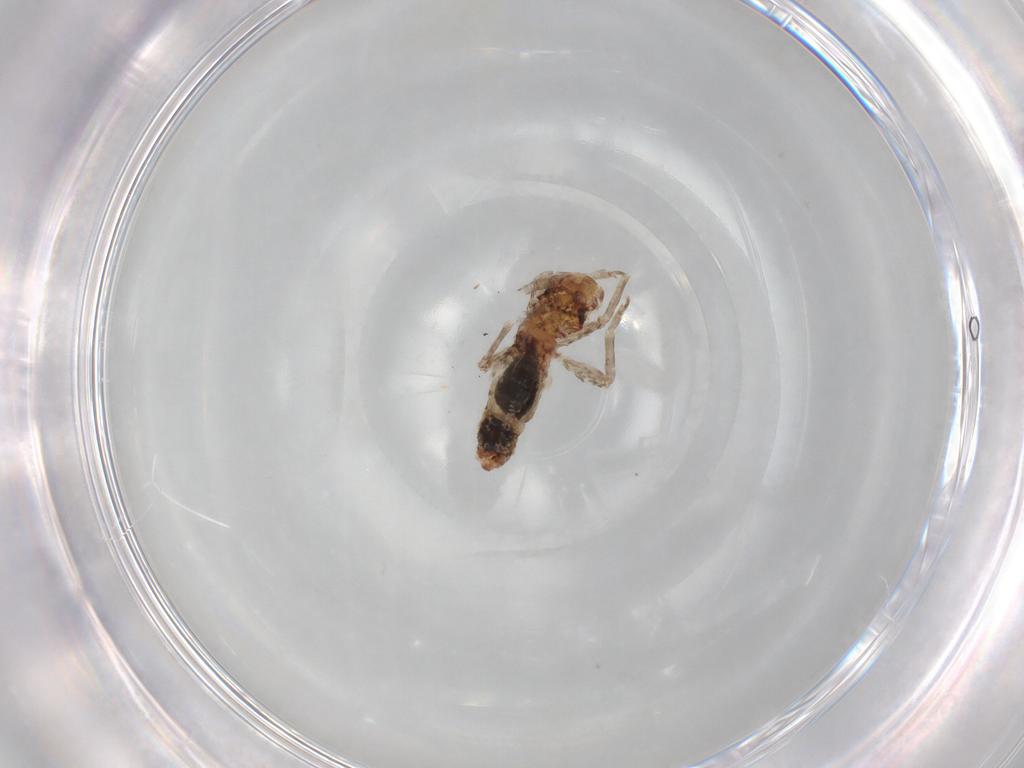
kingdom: Animalia
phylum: Arthropoda
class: Insecta
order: Orthoptera
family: Mogoplistidae
